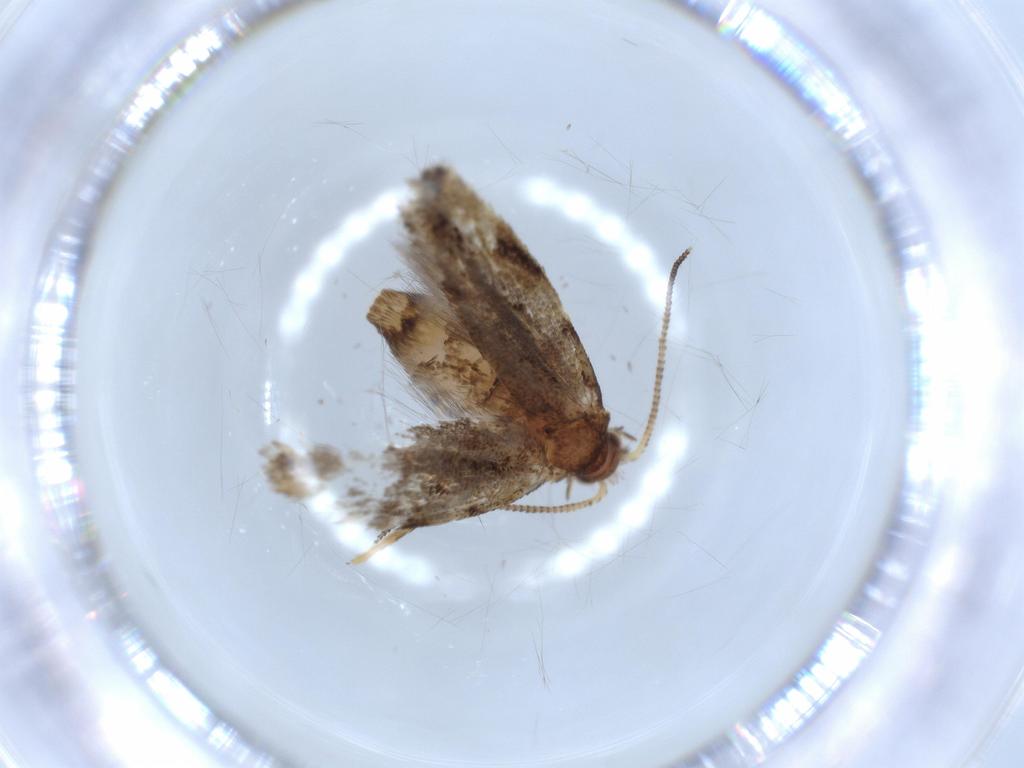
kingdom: Animalia
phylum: Arthropoda
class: Insecta
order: Lepidoptera
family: Tineidae
